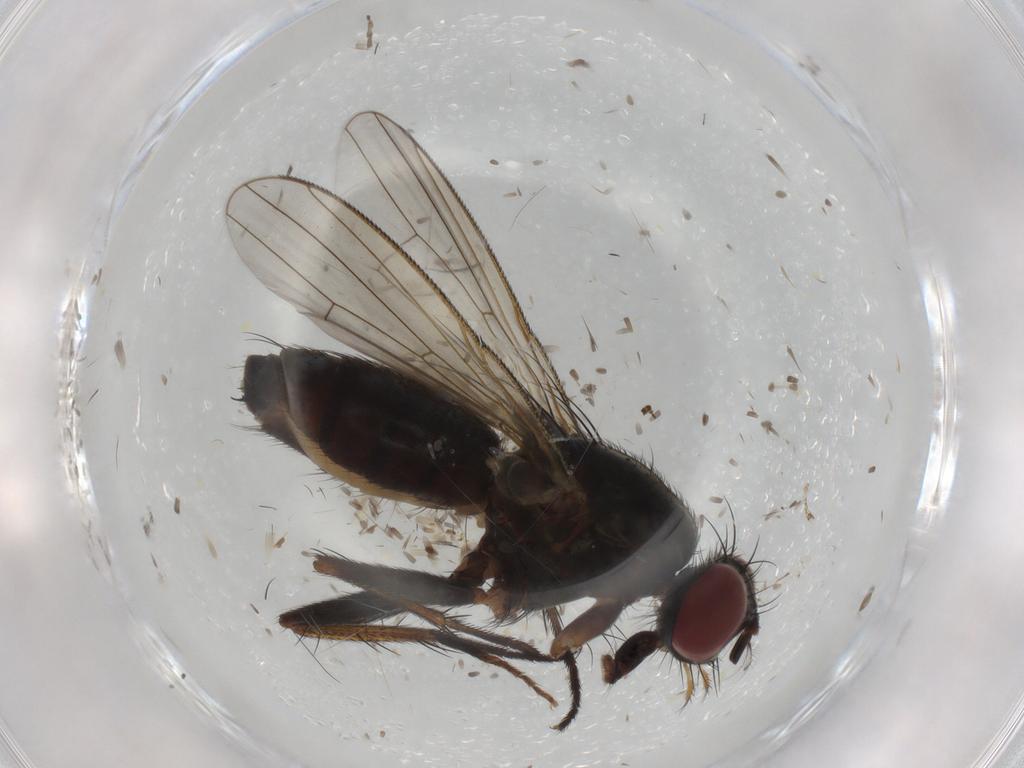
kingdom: Animalia
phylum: Arthropoda
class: Insecta
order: Diptera
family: Muscidae
